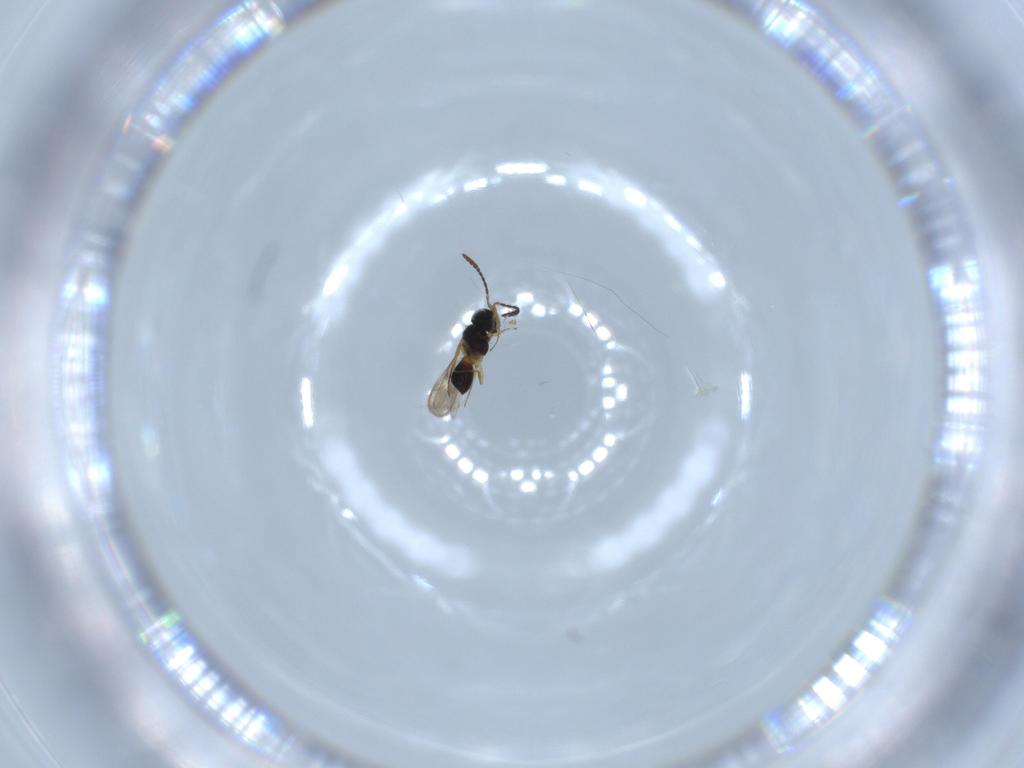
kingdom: Animalia
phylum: Arthropoda
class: Insecta
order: Hymenoptera
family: Scelionidae
